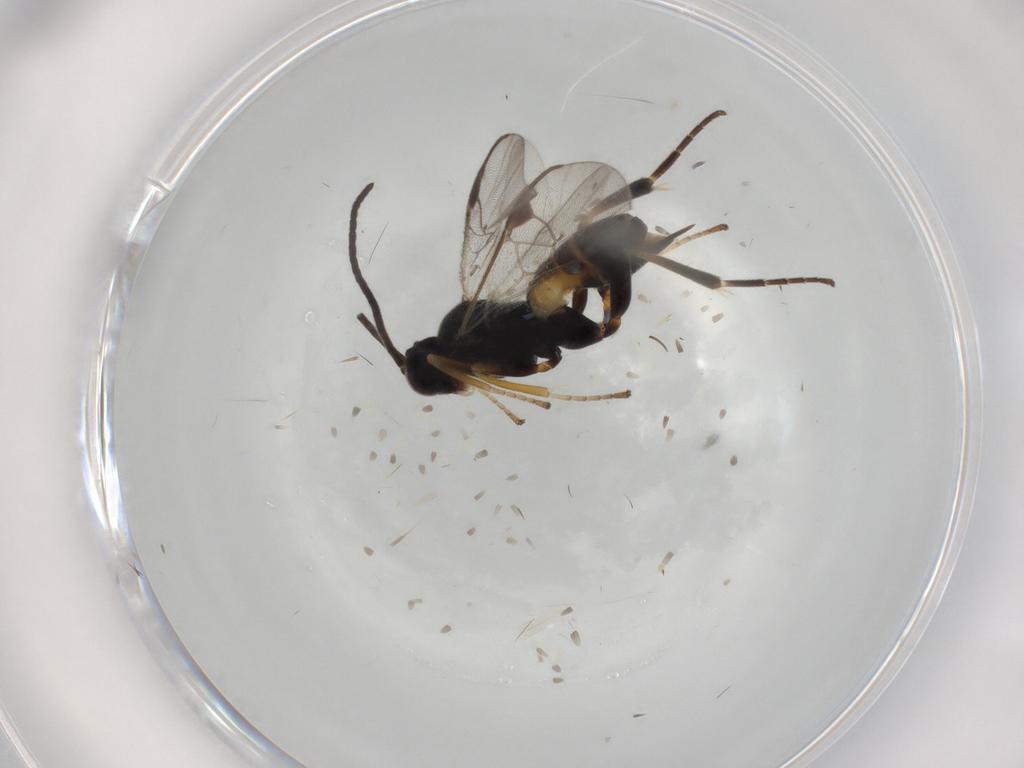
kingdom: Animalia
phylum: Arthropoda
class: Insecta
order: Hymenoptera
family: Braconidae
